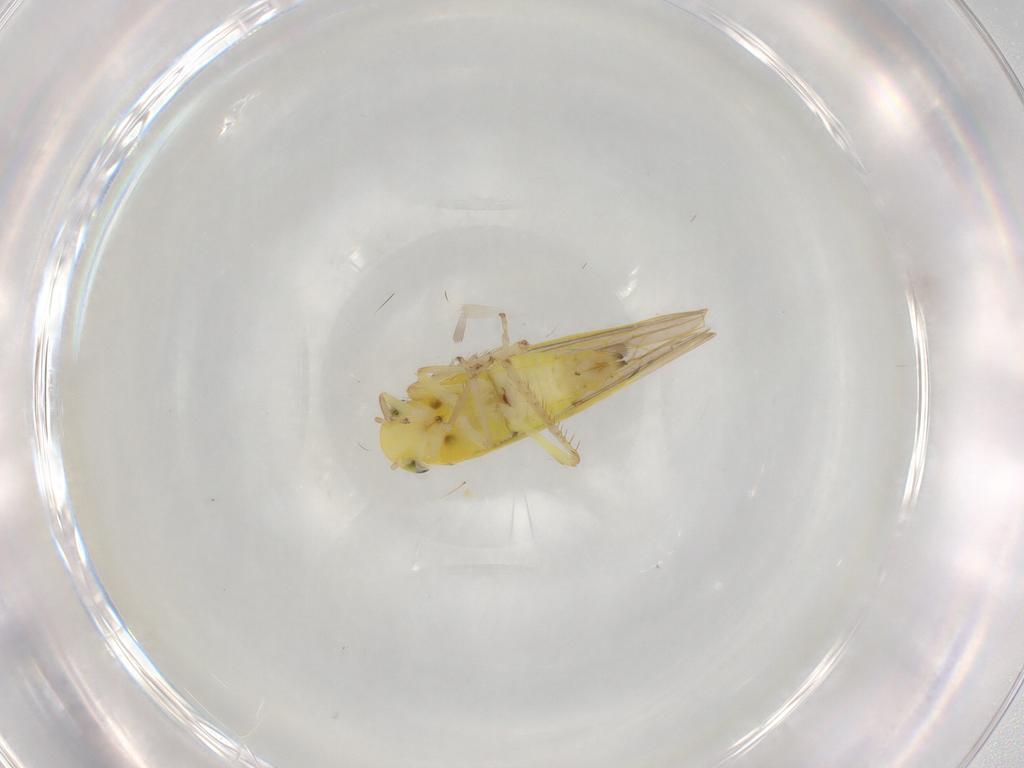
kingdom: Animalia
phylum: Arthropoda
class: Insecta
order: Hemiptera
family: Cicadellidae
